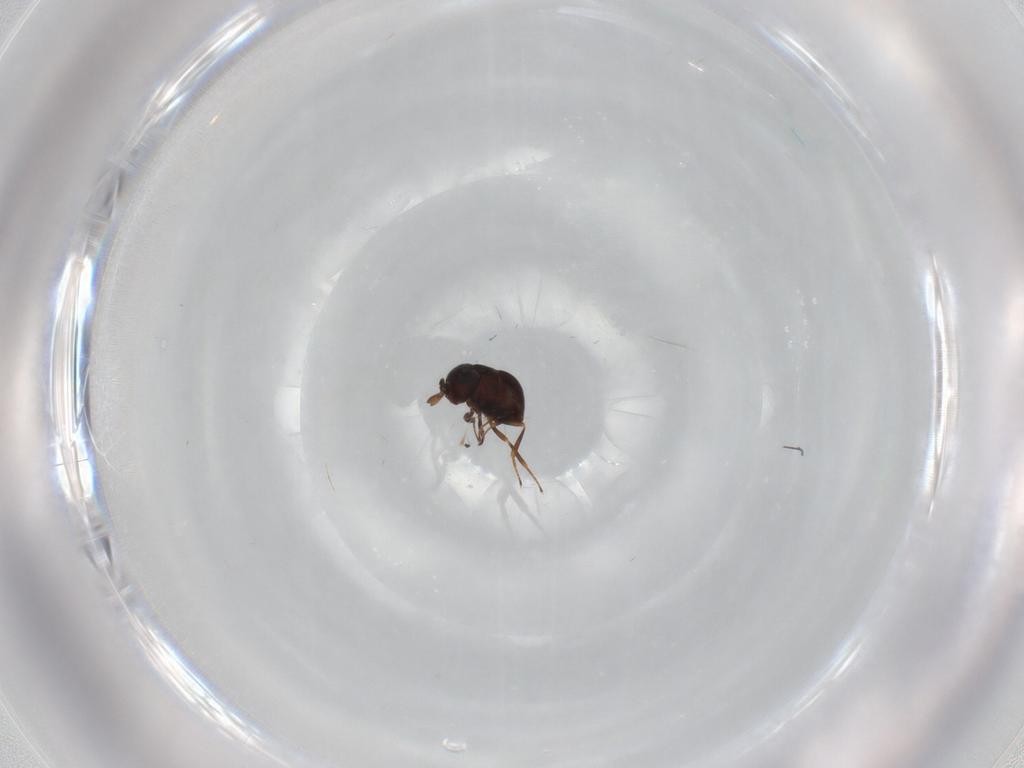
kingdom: Animalia
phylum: Arthropoda
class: Insecta
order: Hymenoptera
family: Scelionidae
